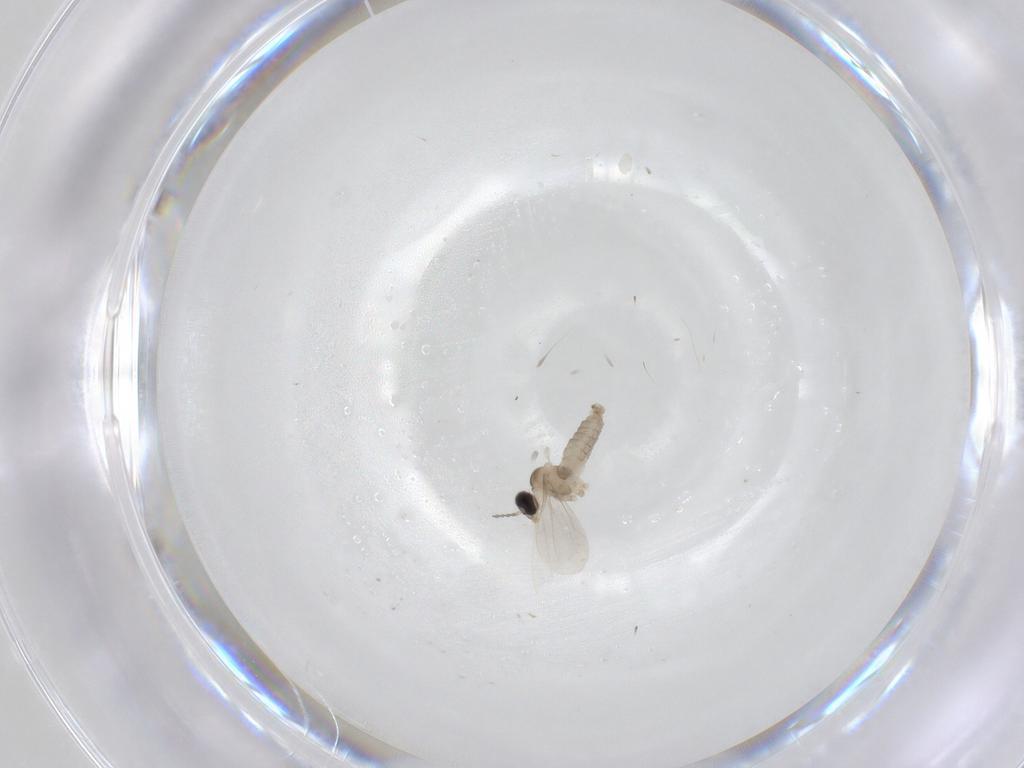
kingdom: Animalia
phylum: Arthropoda
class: Insecta
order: Diptera
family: Cecidomyiidae
